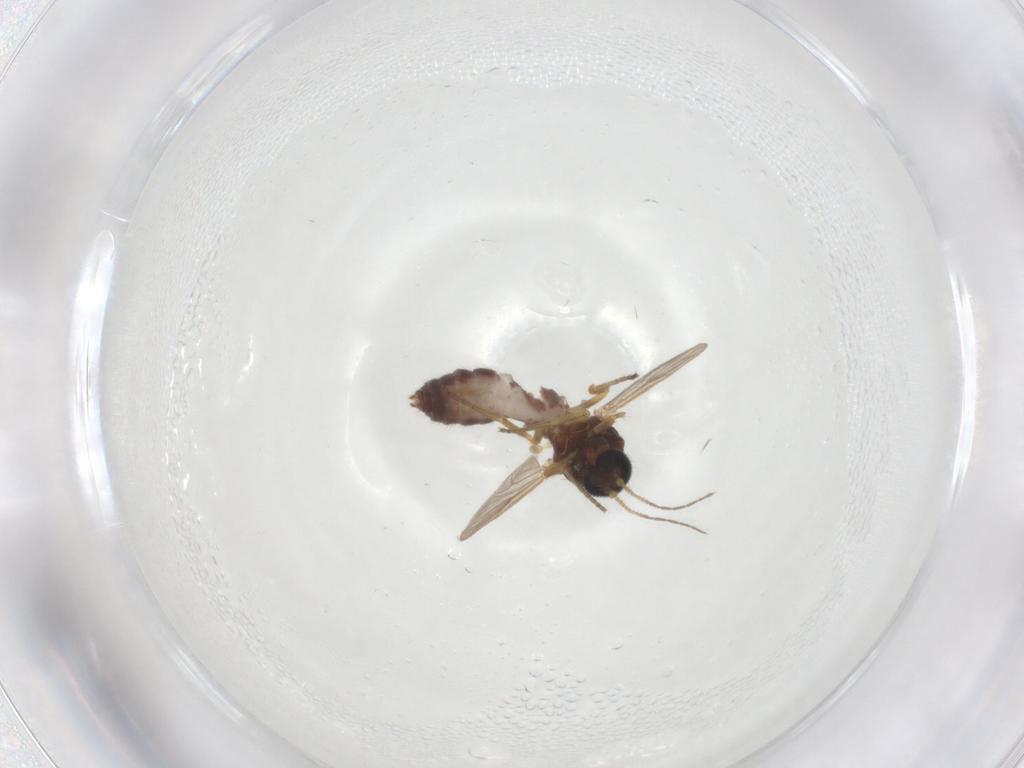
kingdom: Animalia
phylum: Arthropoda
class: Insecta
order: Diptera
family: Ceratopogonidae
